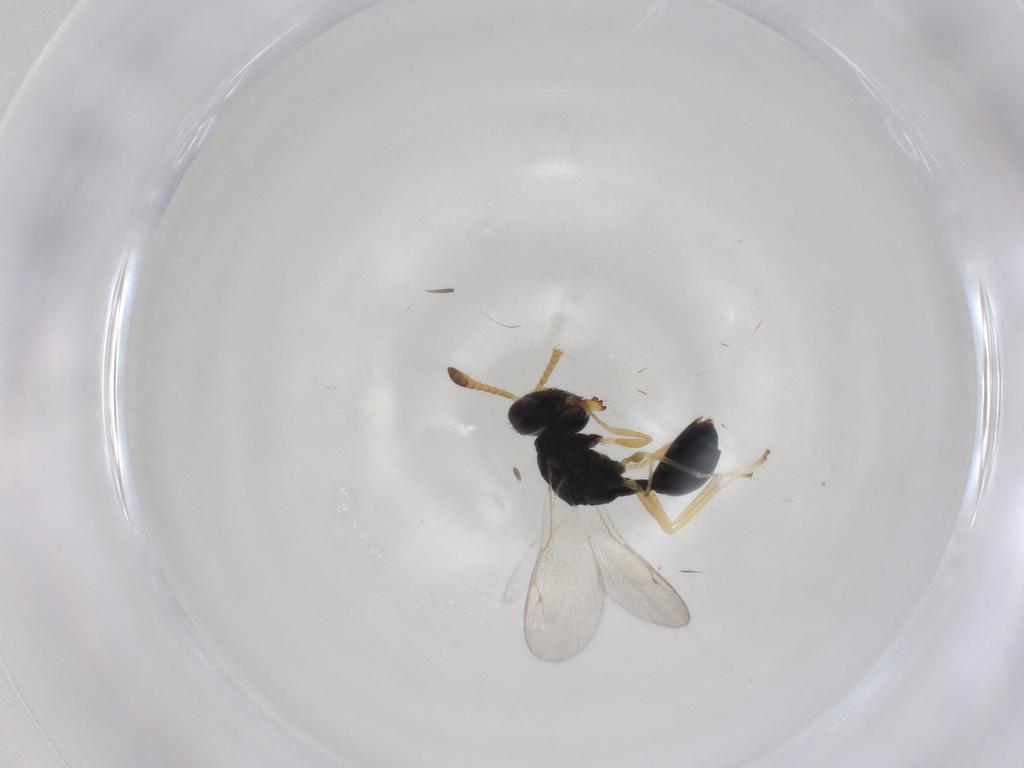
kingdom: Animalia
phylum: Arthropoda
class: Insecta
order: Hymenoptera
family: Pteromalidae
